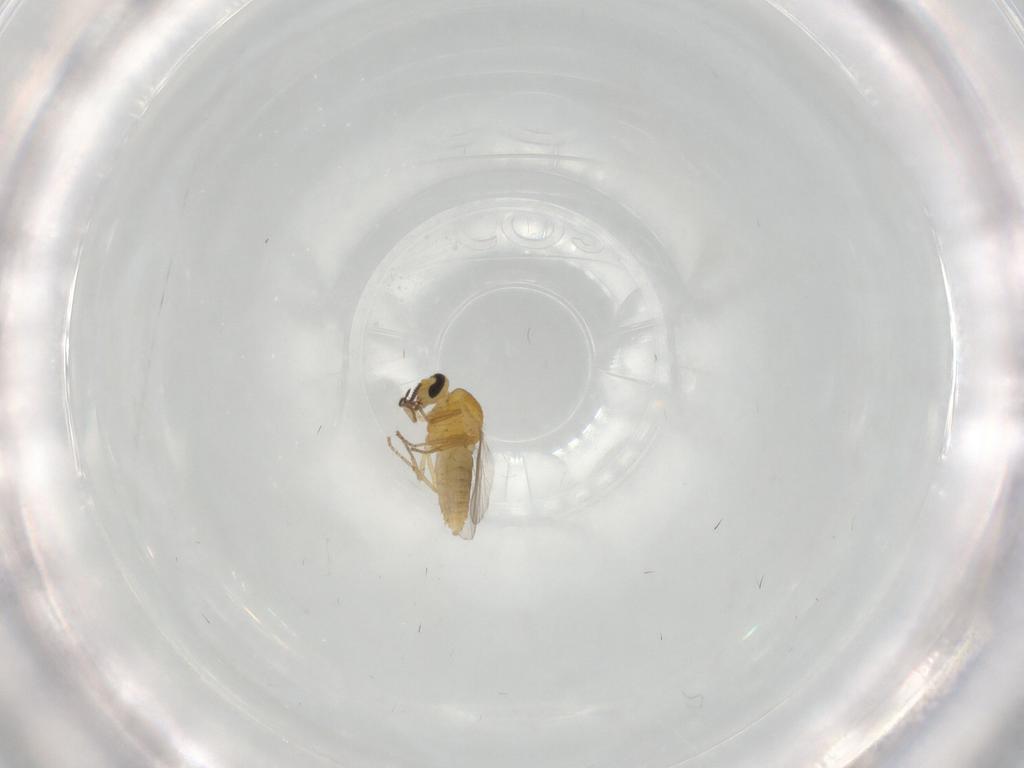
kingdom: Animalia
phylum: Arthropoda
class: Insecta
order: Diptera
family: Ceratopogonidae
